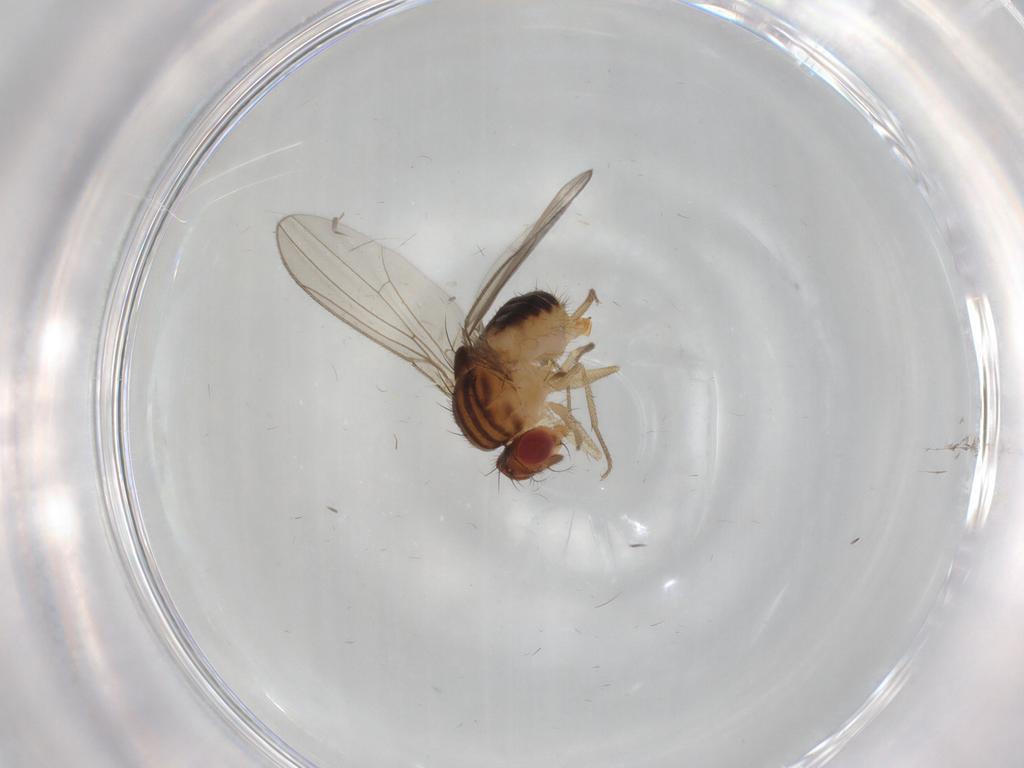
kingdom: Animalia
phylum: Arthropoda
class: Insecta
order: Diptera
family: Drosophilidae
